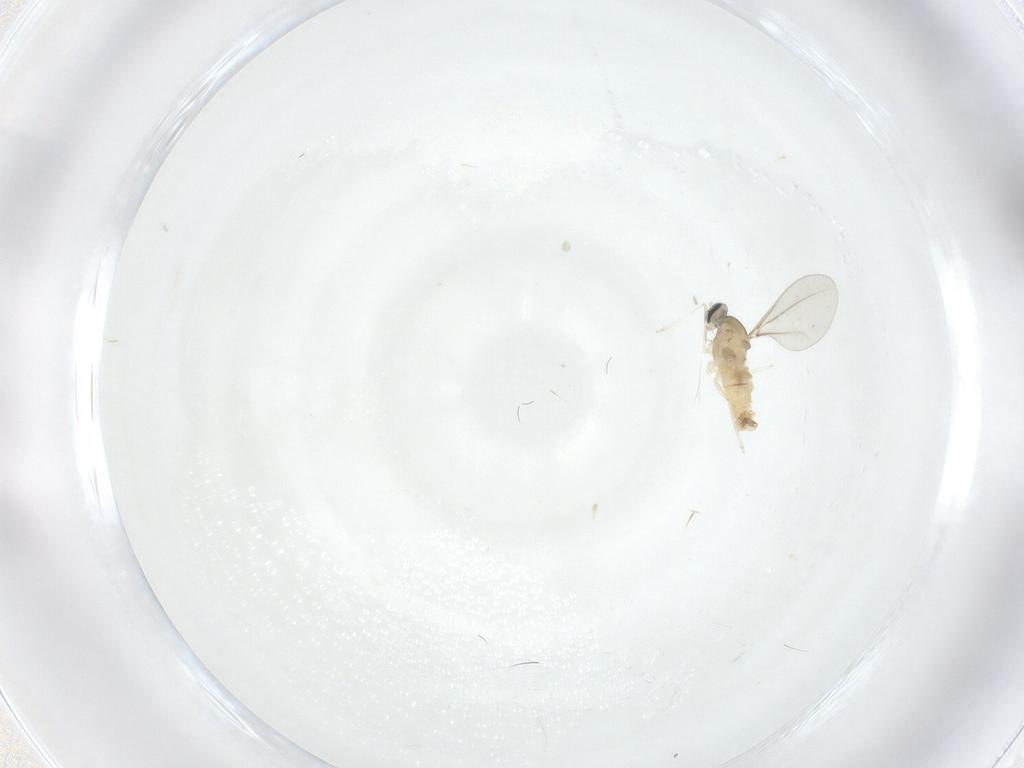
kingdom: Animalia
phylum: Arthropoda
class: Insecta
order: Diptera
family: Cecidomyiidae
